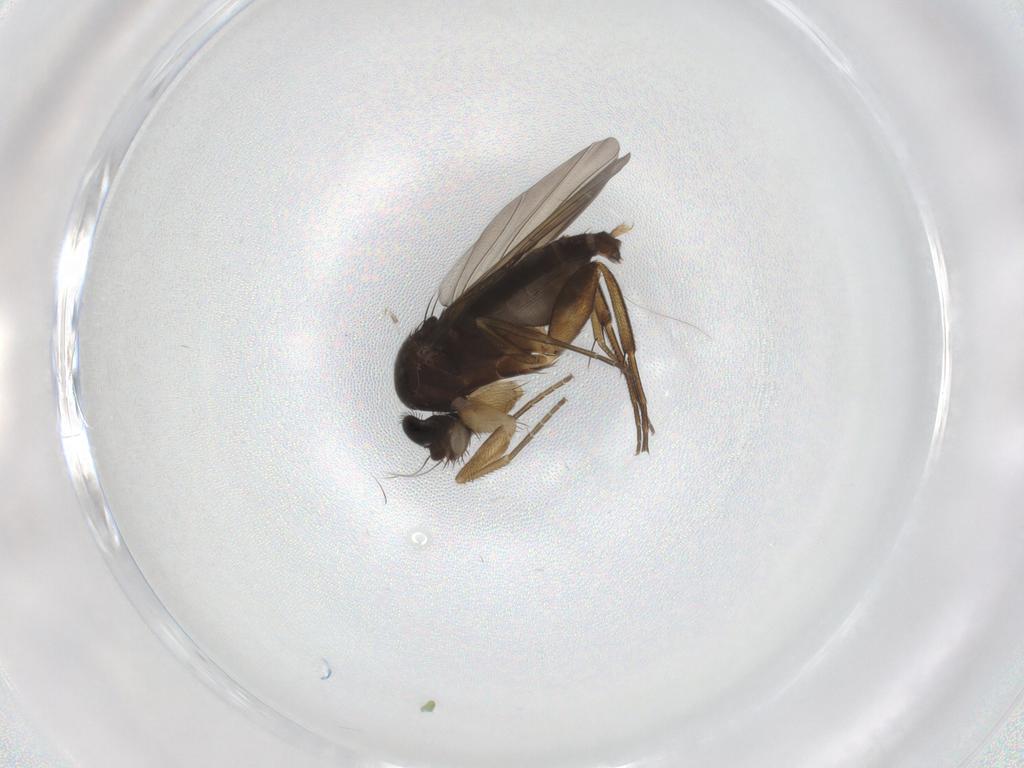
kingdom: Animalia
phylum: Arthropoda
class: Insecta
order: Diptera
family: Phoridae
